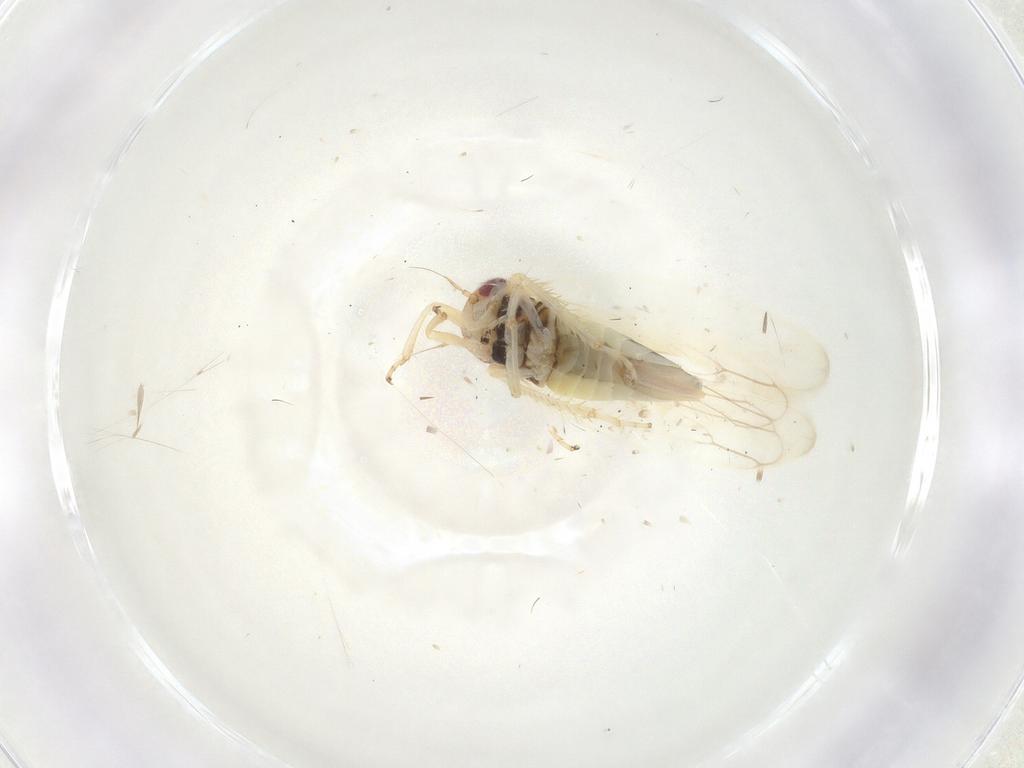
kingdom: Animalia
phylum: Arthropoda
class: Insecta
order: Hemiptera
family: Cicadellidae
